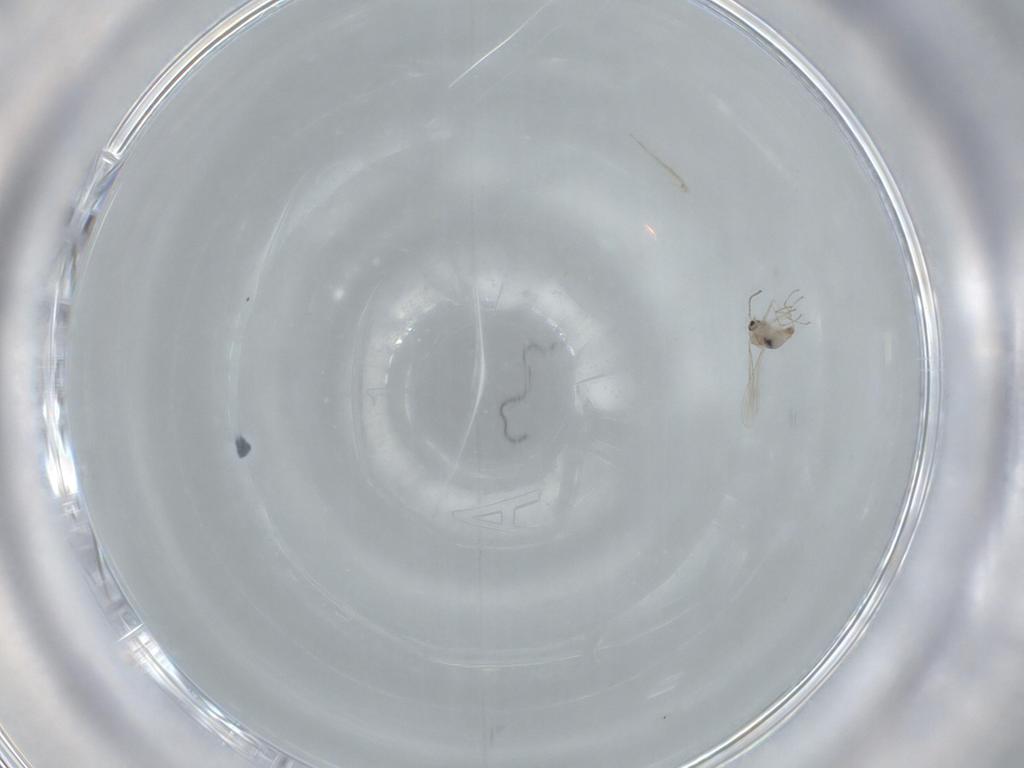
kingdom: Animalia
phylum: Arthropoda
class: Insecta
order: Diptera
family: Cecidomyiidae
